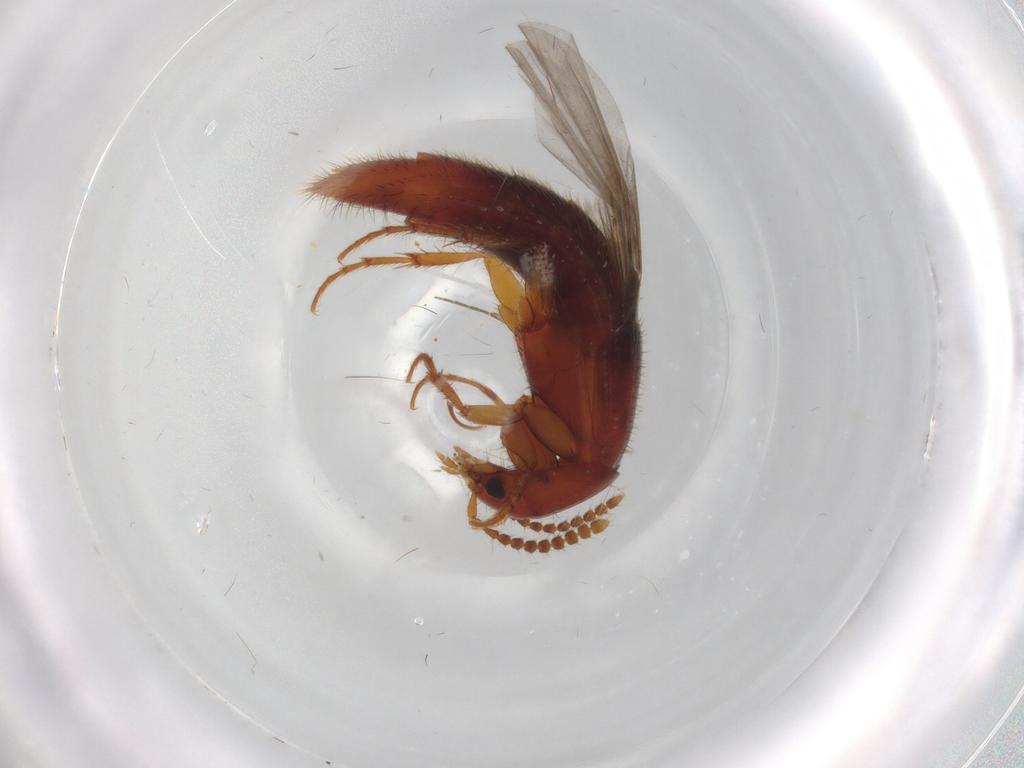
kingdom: Animalia
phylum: Arthropoda
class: Insecta
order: Coleoptera
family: Staphylinidae
